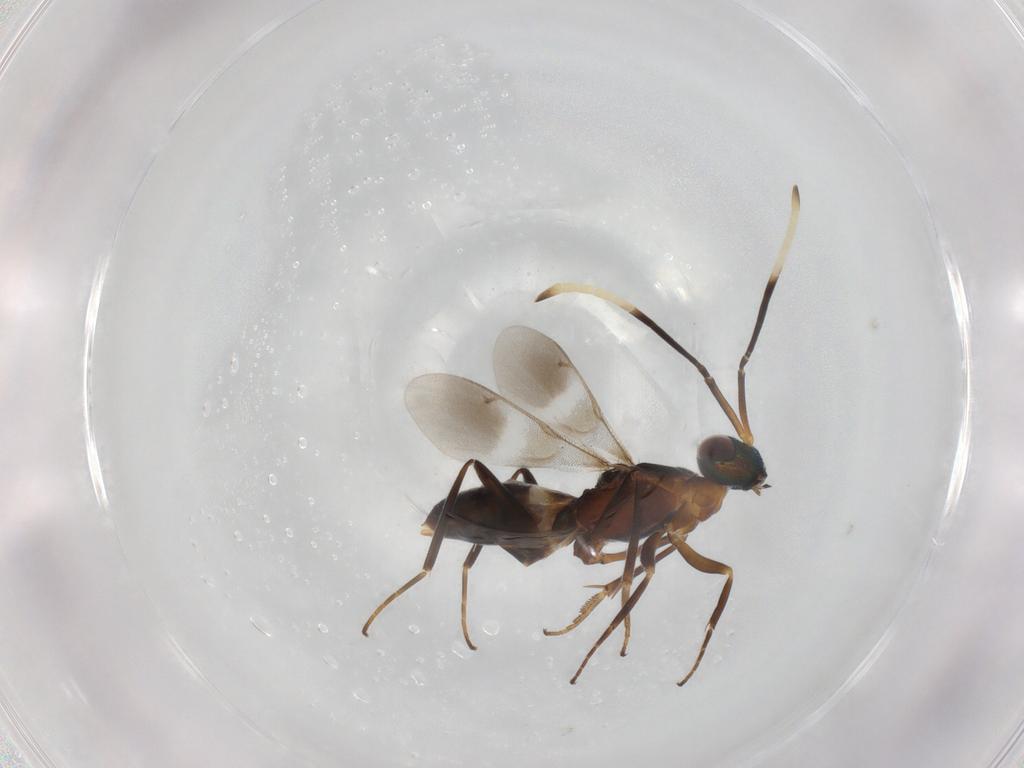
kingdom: Animalia
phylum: Arthropoda
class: Insecta
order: Hymenoptera
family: Eupelmidae
